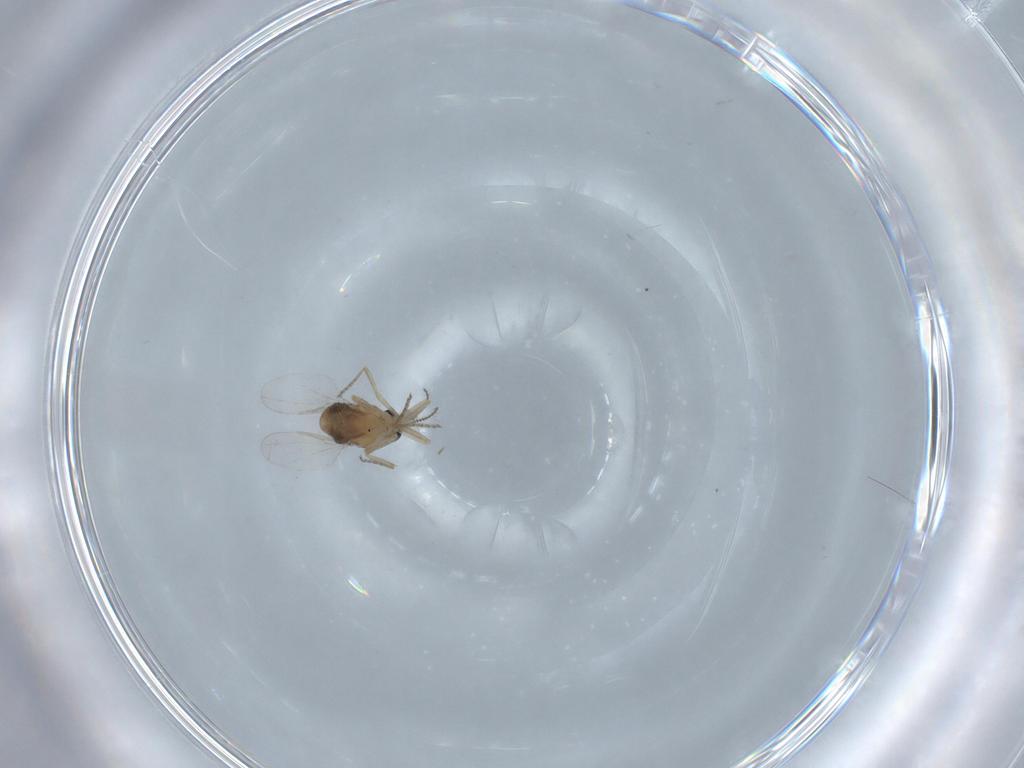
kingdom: Animalia
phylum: Arthropoda
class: Insecta
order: Diptera
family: Ceratopogonidae
